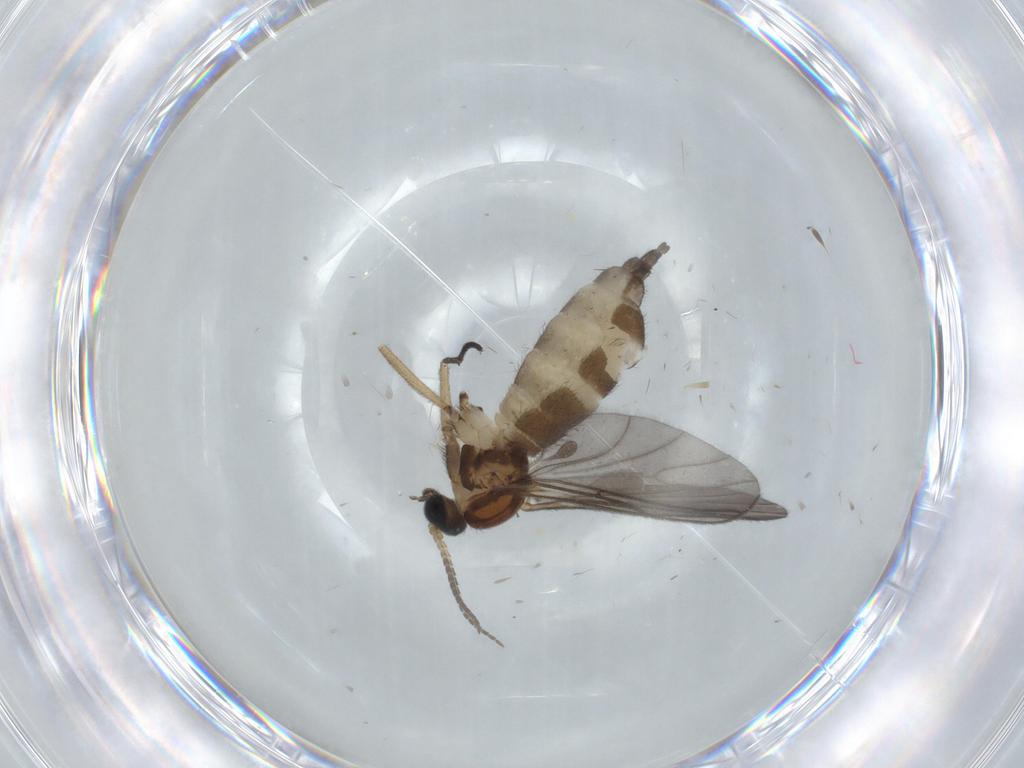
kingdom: Animalia
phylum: Arthropoda
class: Insecta
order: Diptera
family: Sciaridae
